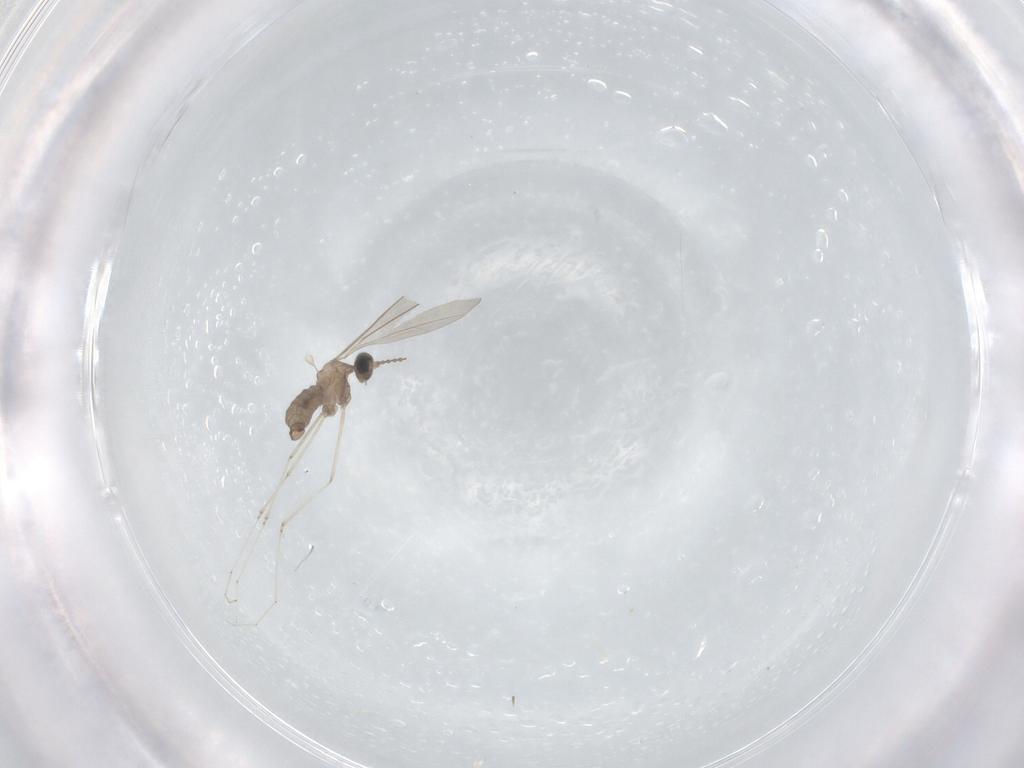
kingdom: Animalia
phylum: Arthropoda
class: Insecta
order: Diptera
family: Cecidomyiidae
